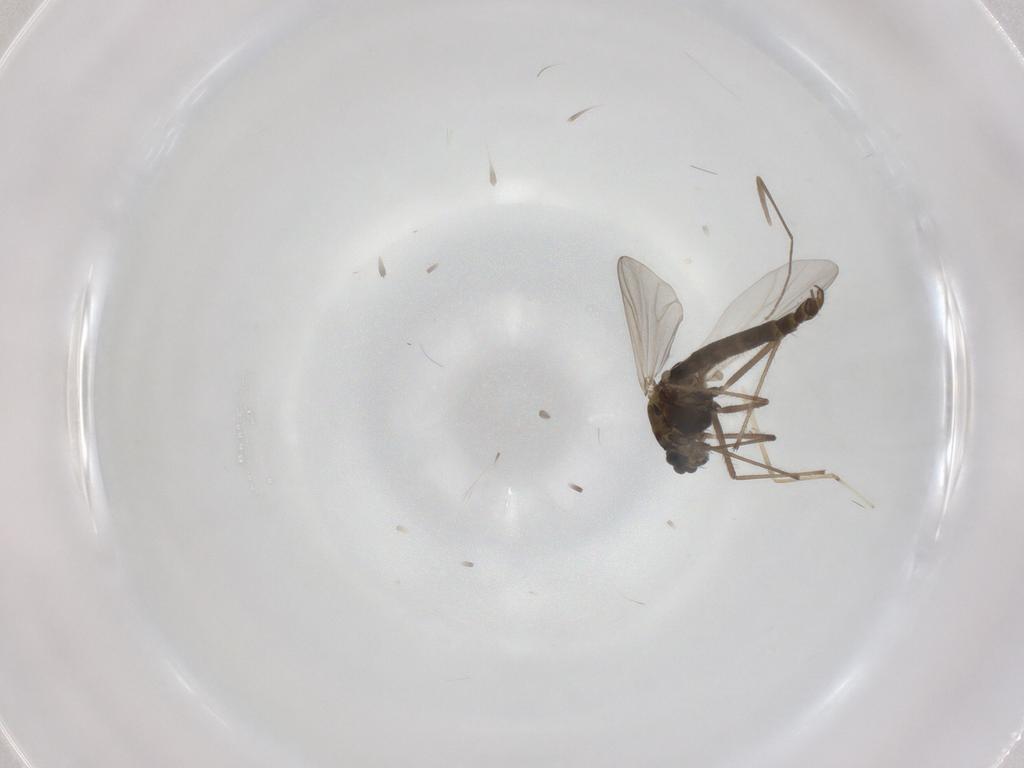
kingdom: Animalia
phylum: Arthropoda
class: Insecta
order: Diptera
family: Chironomidae
